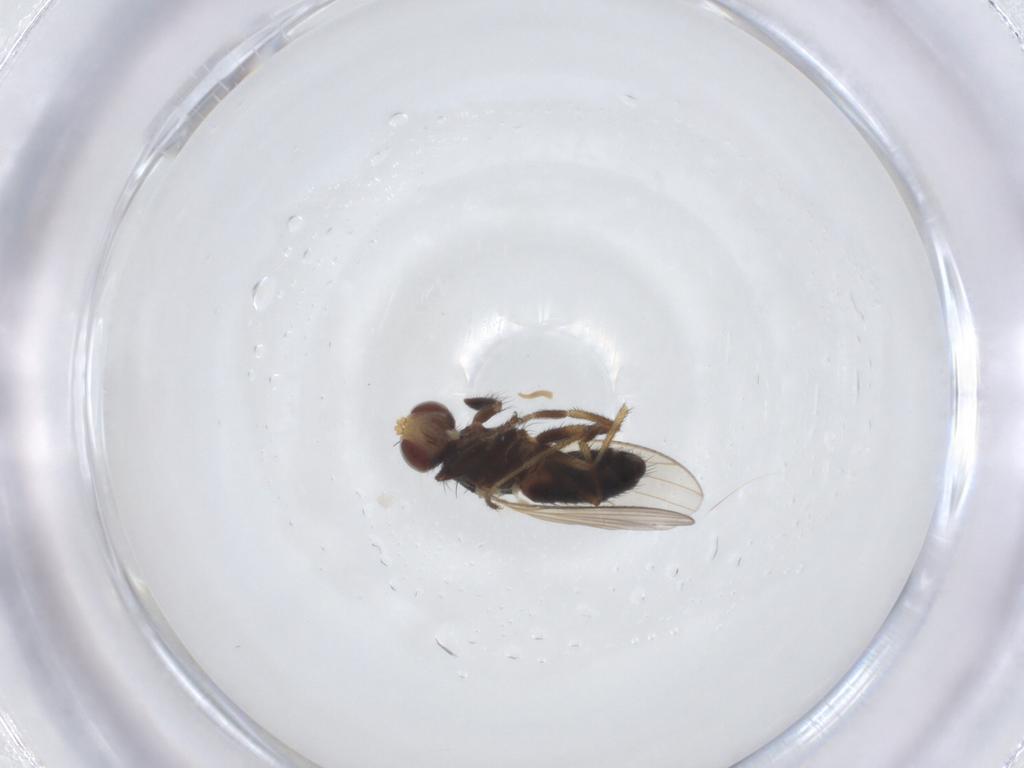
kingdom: Animalia
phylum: Arthropoda
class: Insecta
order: Diptera
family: Heleomyzidae
